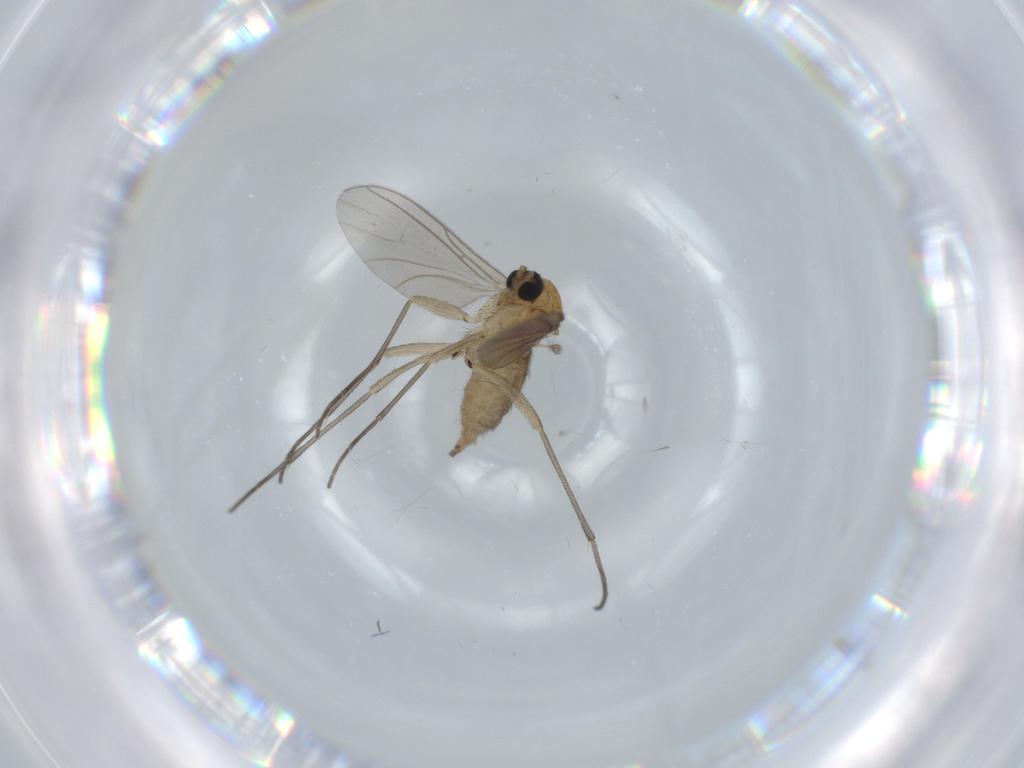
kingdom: Animalia
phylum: Arthropoda
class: Insecta
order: Diptera
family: Sciaridae
